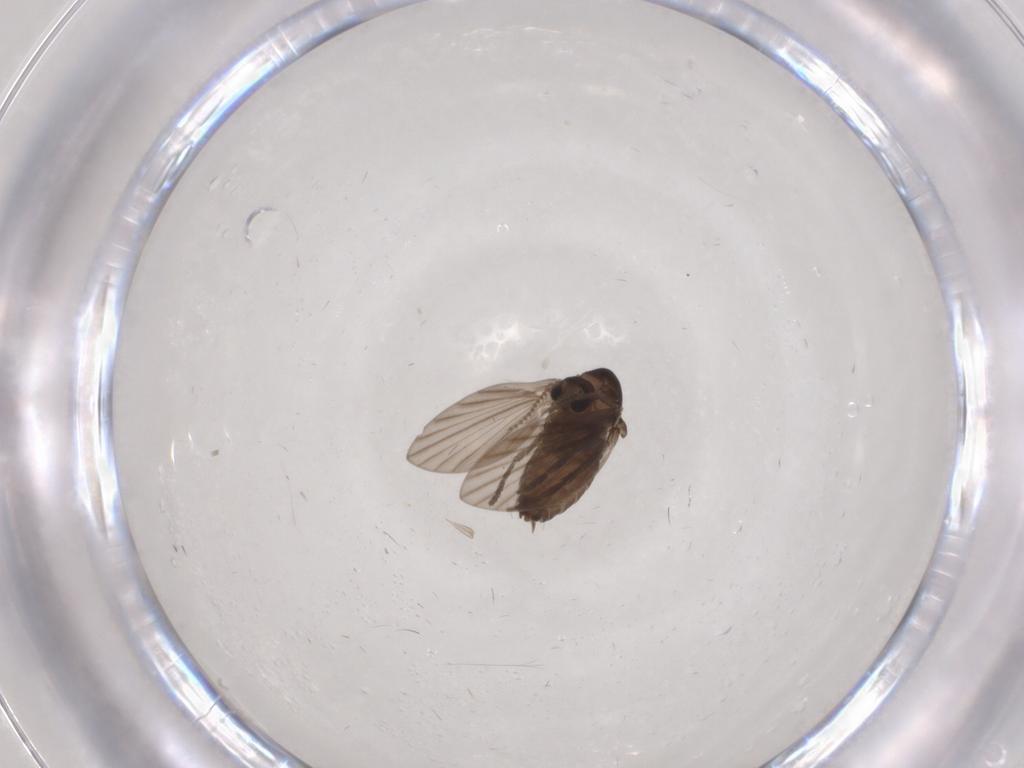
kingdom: Animalia
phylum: Arthropoda
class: Insecta
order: Diptera
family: Psychodidae
